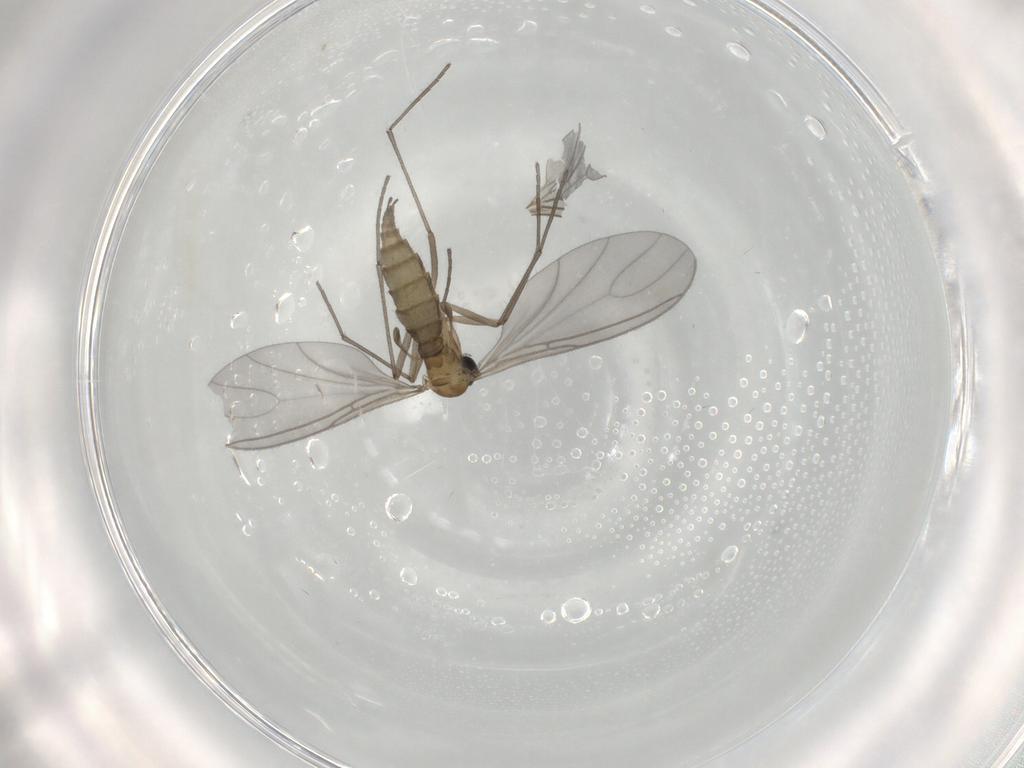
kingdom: Animalia
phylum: Arthropoda
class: Insecta
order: Diptera
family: Sciaridae
